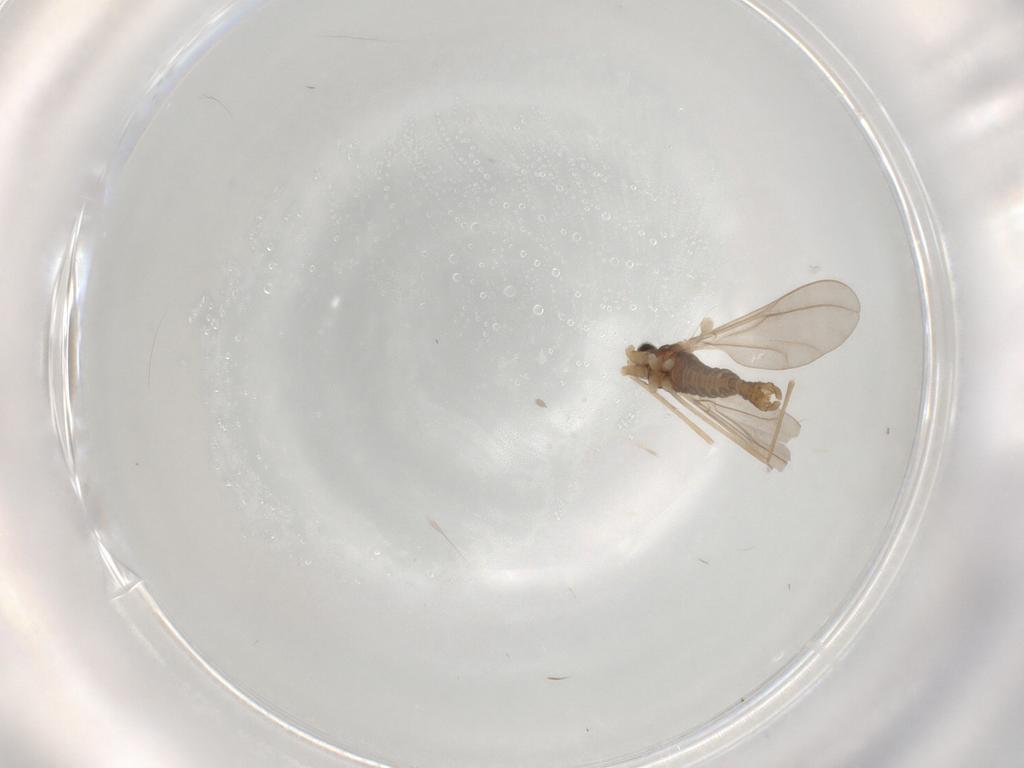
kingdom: Animalia
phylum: Arthropoda
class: Insecta
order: Diptera
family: Cecidomyiidae
